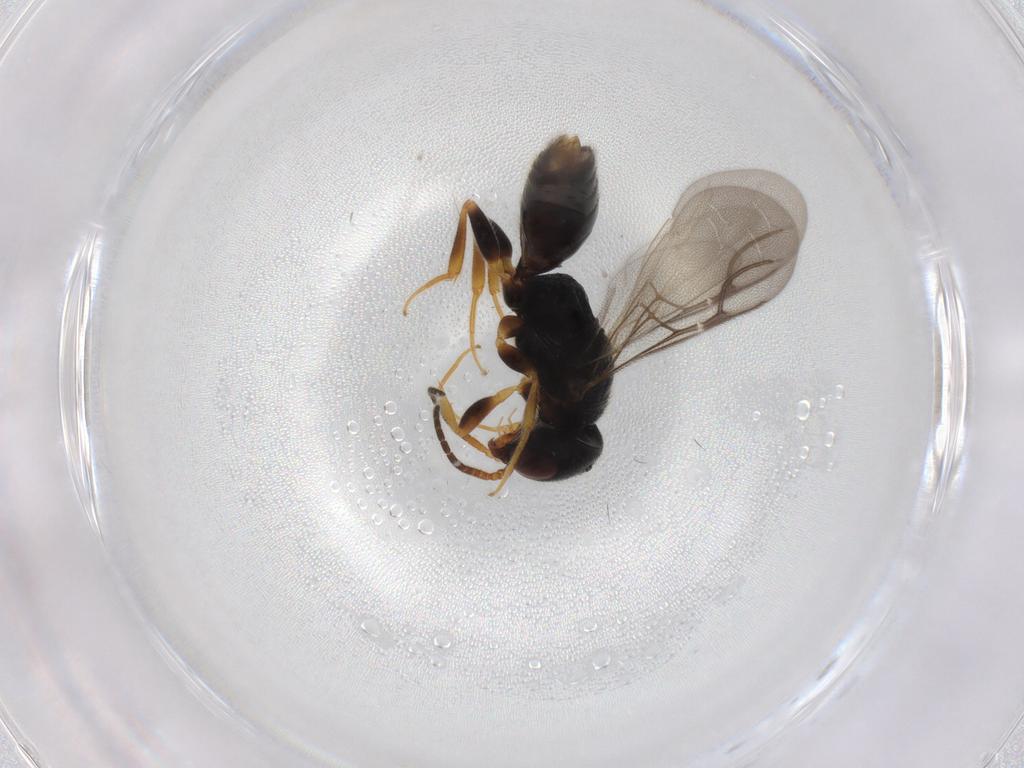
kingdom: Animalia
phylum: Arthropoda
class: Insecta
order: Hymenoptera
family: Bethylidae
